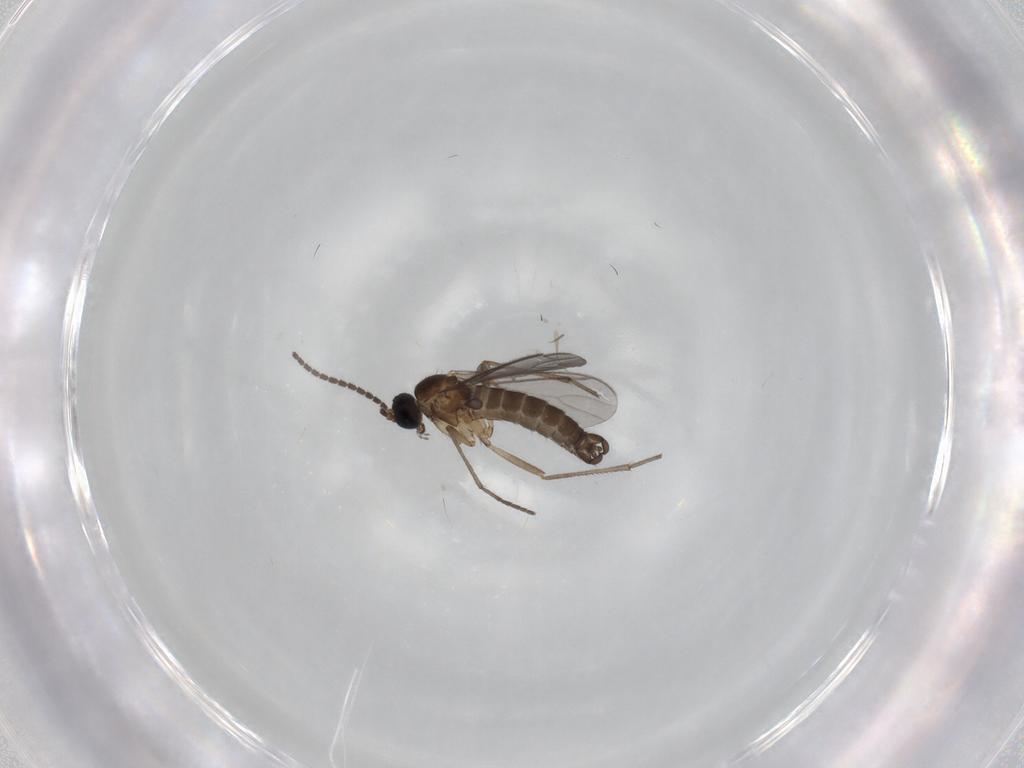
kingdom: Animalia
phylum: Arthropoda
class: Insecta
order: Diptera
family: Sciaridae
